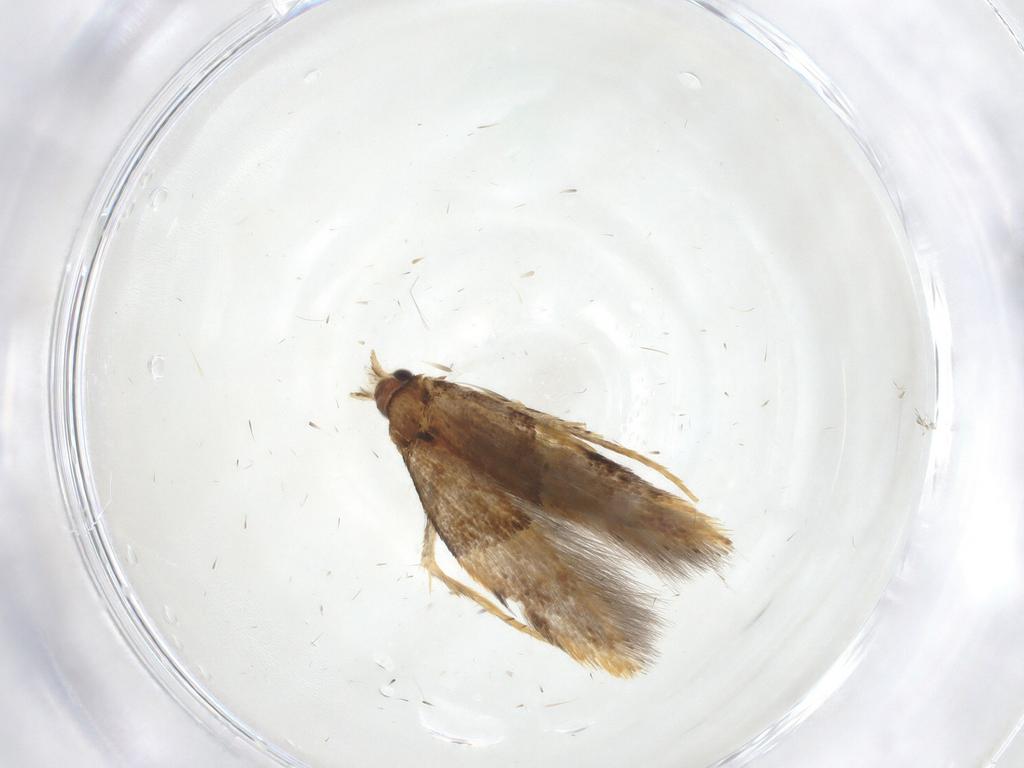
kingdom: Animalia
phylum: Arthropoda
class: Insecta
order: Lepidoptera
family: Tineidae
